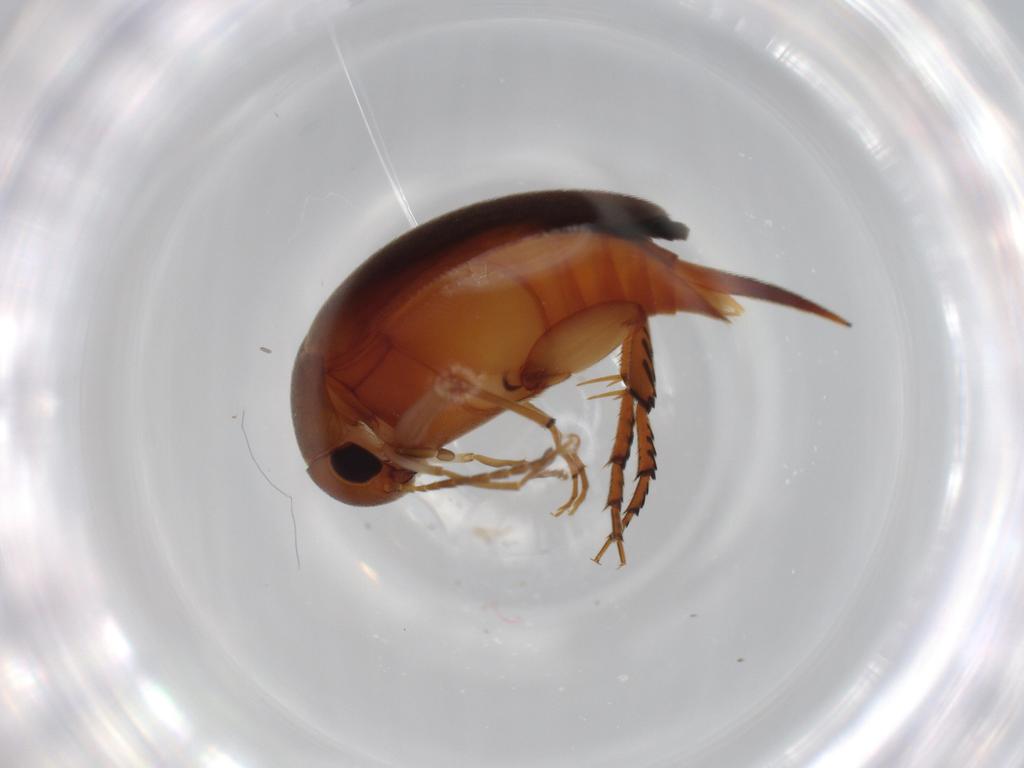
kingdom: Animalia
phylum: Arthropoda
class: Insecta
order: Coleoptera
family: Mordellidae
